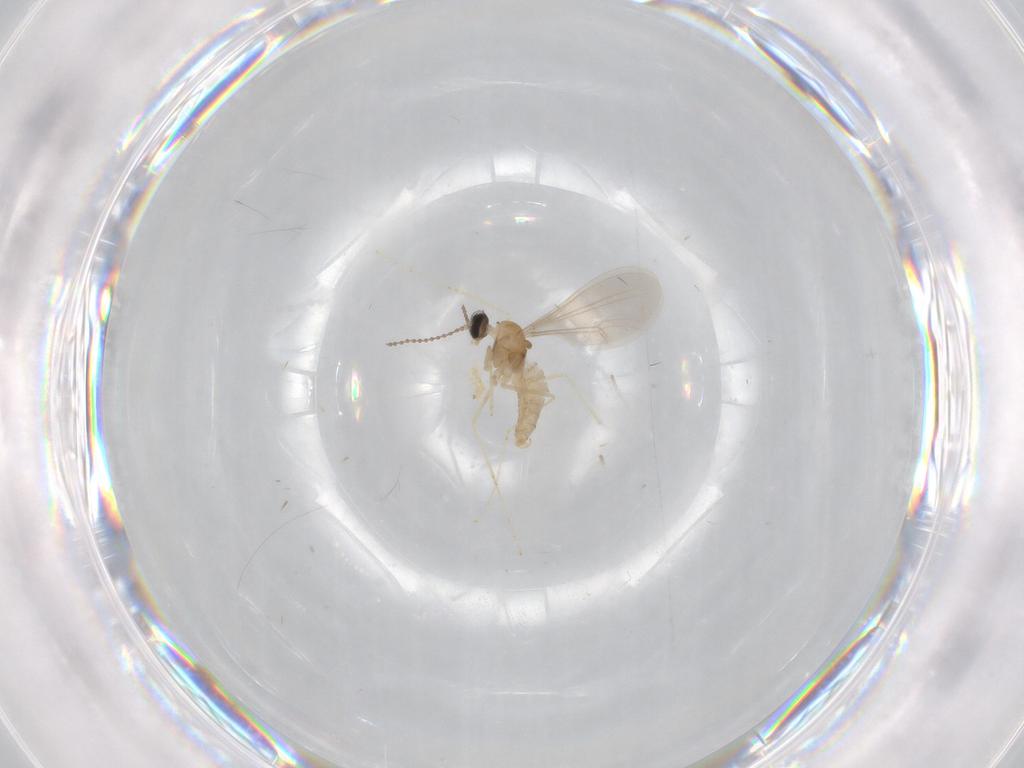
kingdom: Animalia
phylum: Arthropoda
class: Insecta
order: Diptera
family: Cecidomyiidae
